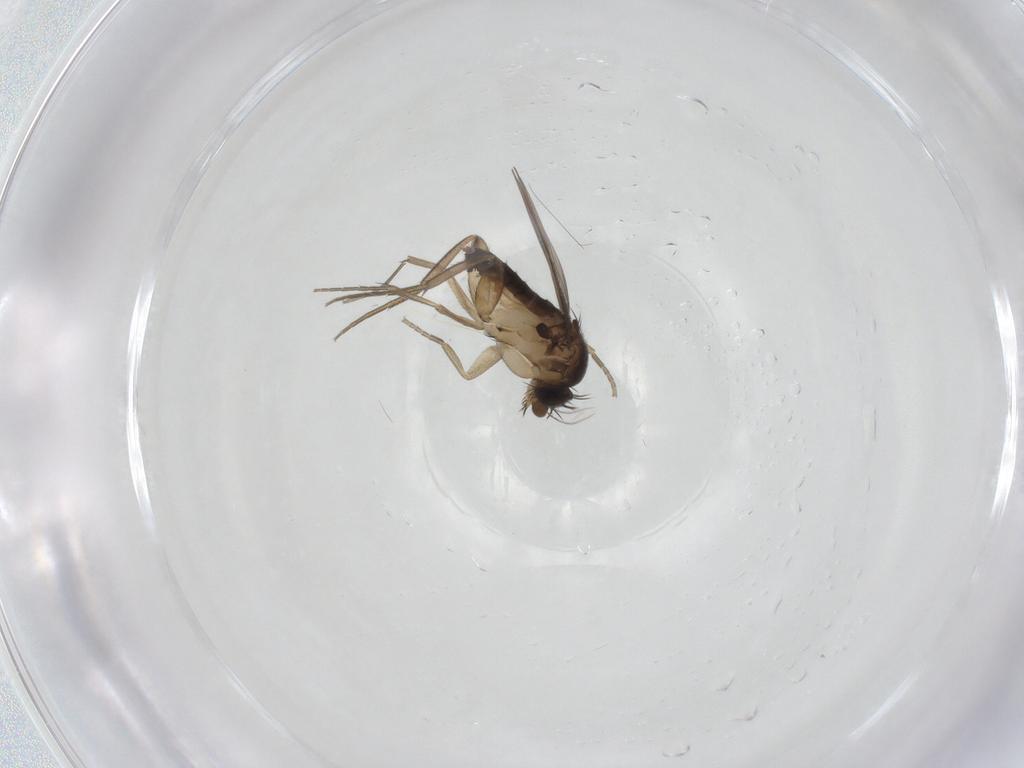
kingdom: Animalia
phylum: Arthropoda
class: Insecta
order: Diptera
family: Phoridae
